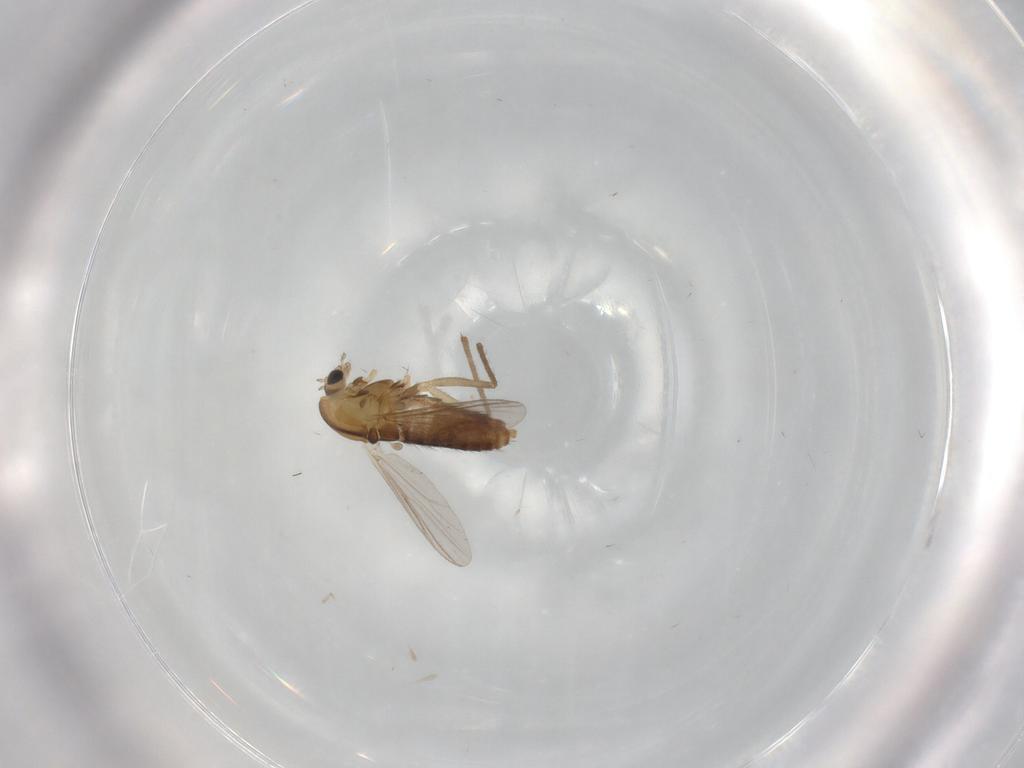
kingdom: Animalia
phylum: Arthropoda
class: Insecta
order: Diptera
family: Chironomidae
